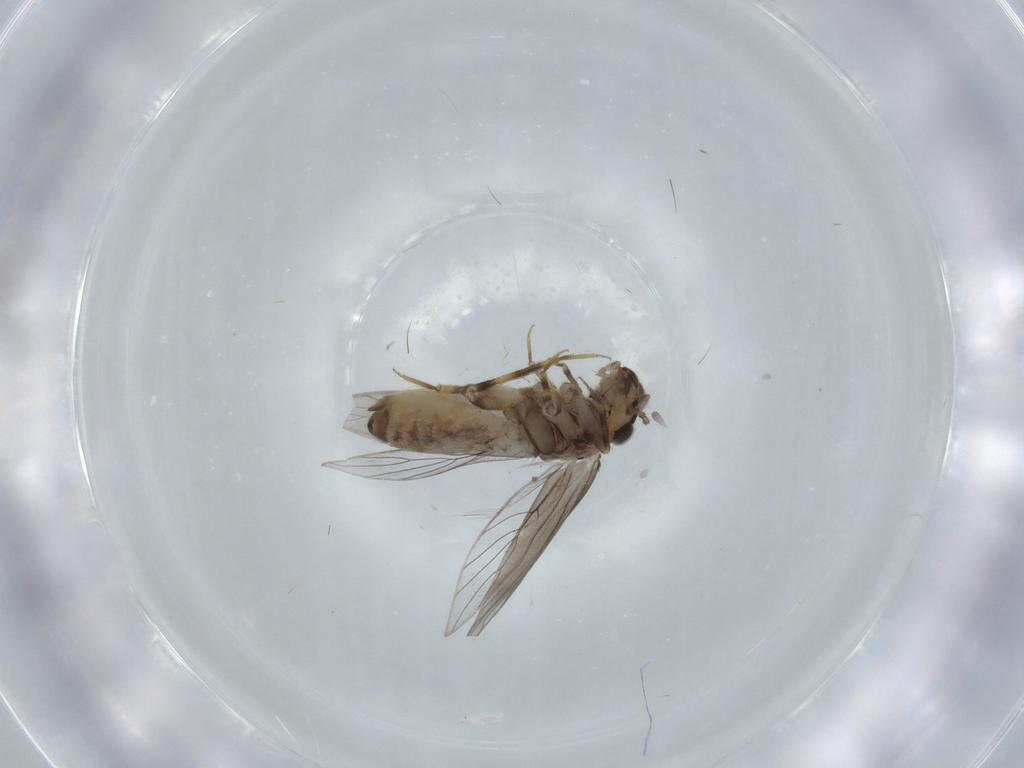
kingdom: Animalia
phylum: Arthropoda
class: Insecta
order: Psocodea
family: Lepidopsocidae
